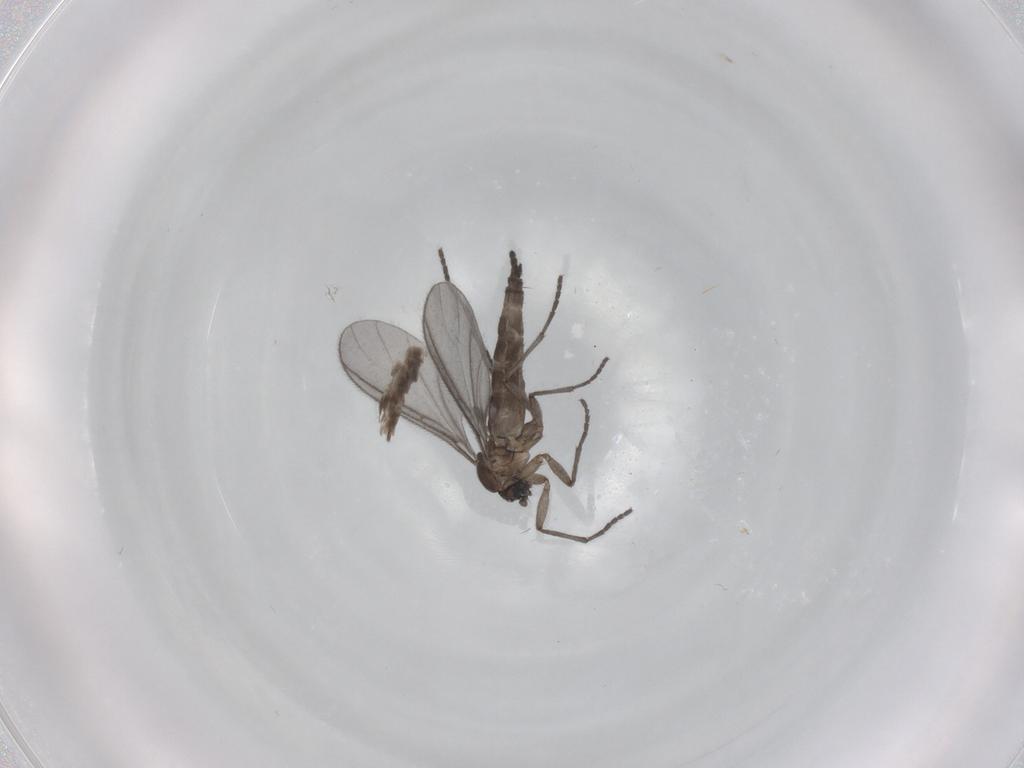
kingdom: Animalia
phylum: Arthropoda
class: Insecta
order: Diptera
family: Sciaridae
